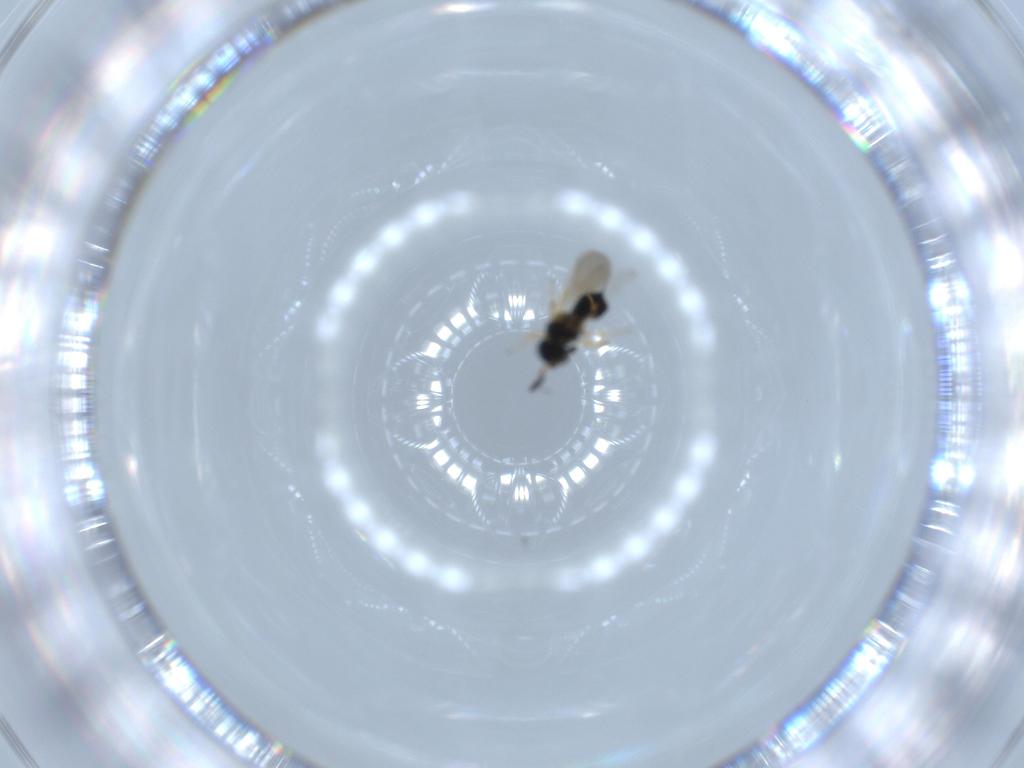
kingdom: Animalia
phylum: Arthropoda
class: Insecta
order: Hymenoptera
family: Scelionidae
